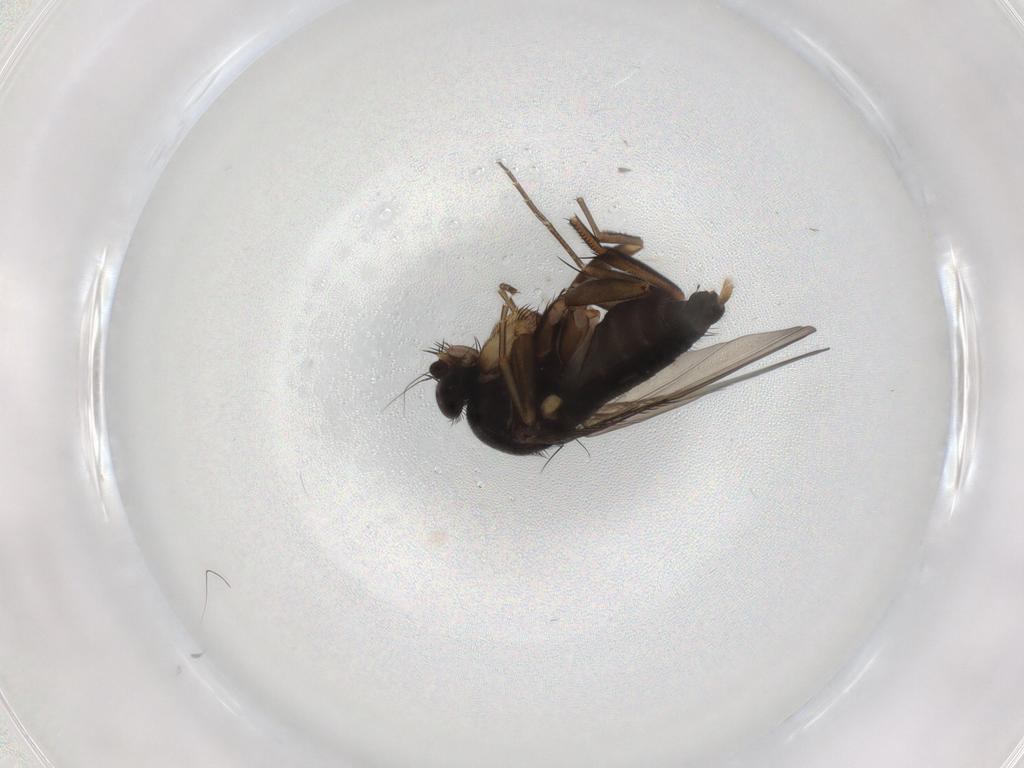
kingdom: Animalia
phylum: Arthropoda
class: Insecta
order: Diptera
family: Phoridae
